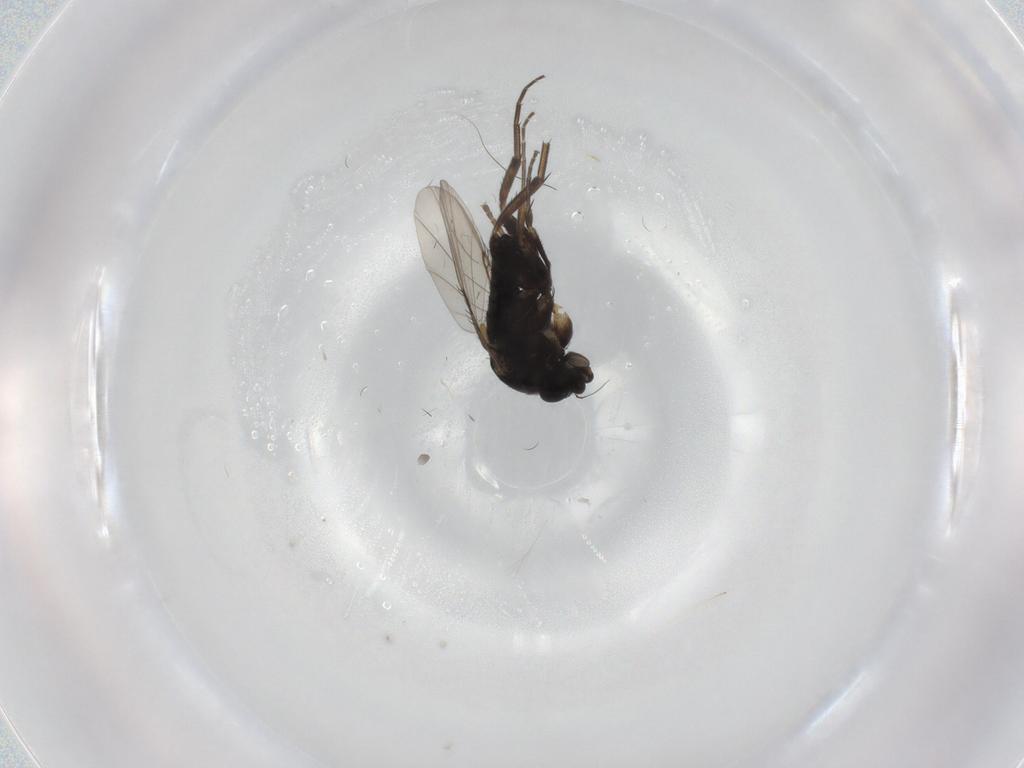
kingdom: Animalia
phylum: Arthropoda
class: Insecta
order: Diptera
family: Phoridae
